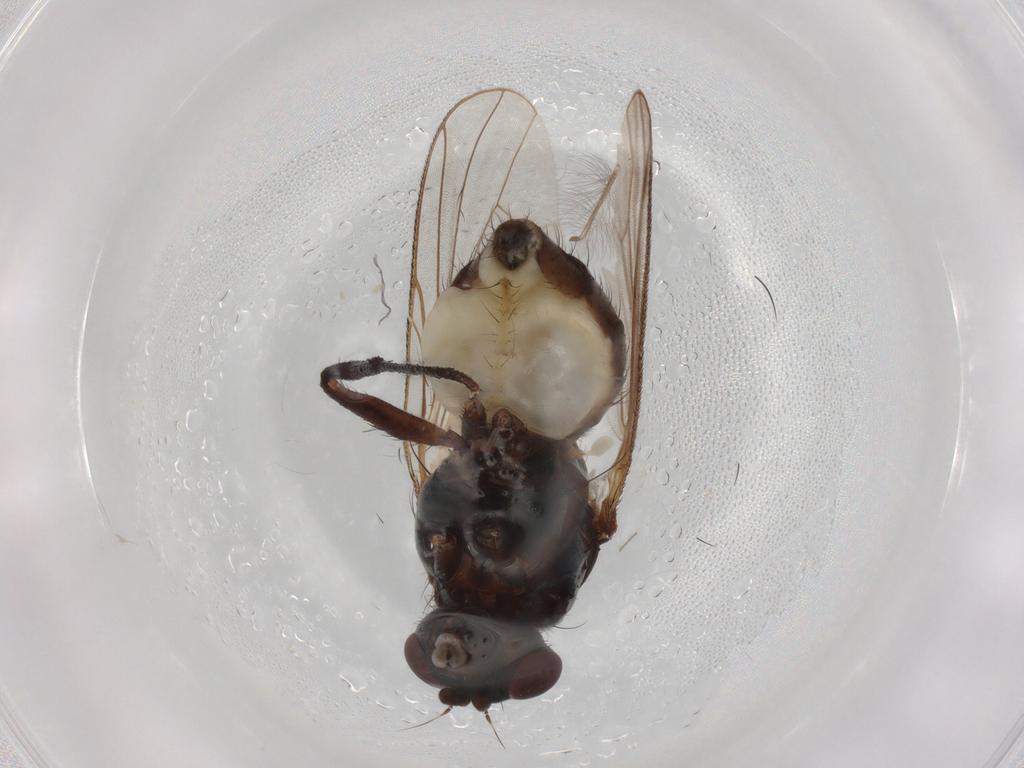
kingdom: Animalia
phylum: Arthropoda
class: Insecta
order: Diptera
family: Anthomyiidae
